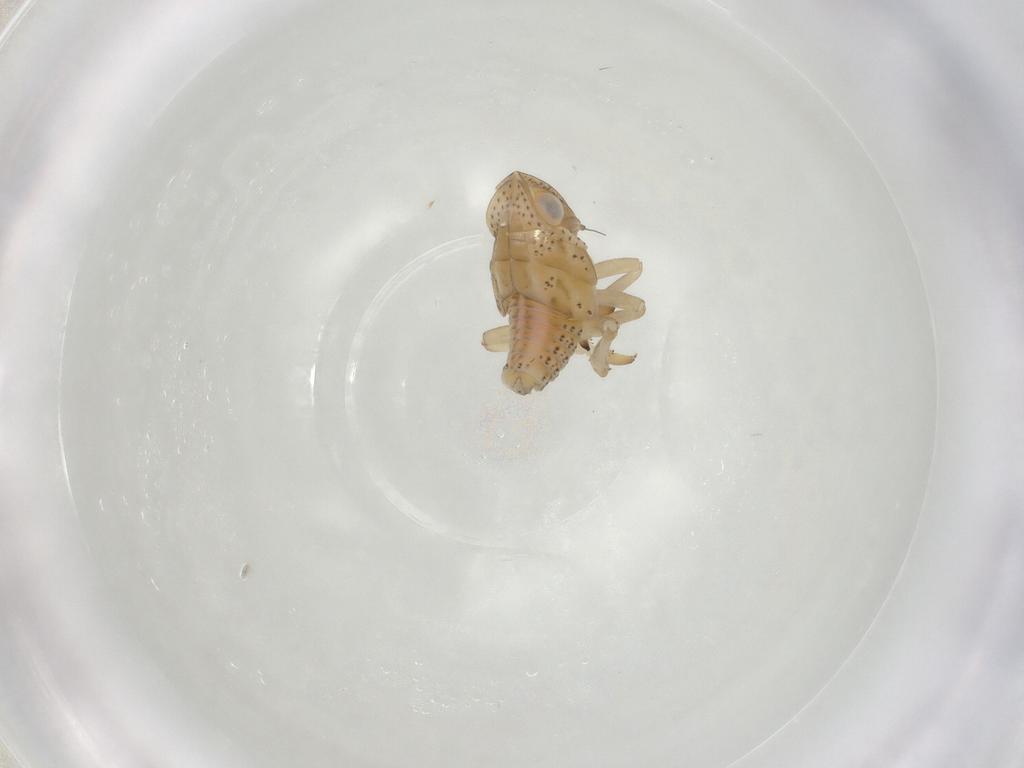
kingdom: Animalia
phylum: Arthropoda
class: Insecta
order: Hemiptera
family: Tropiduchidae
